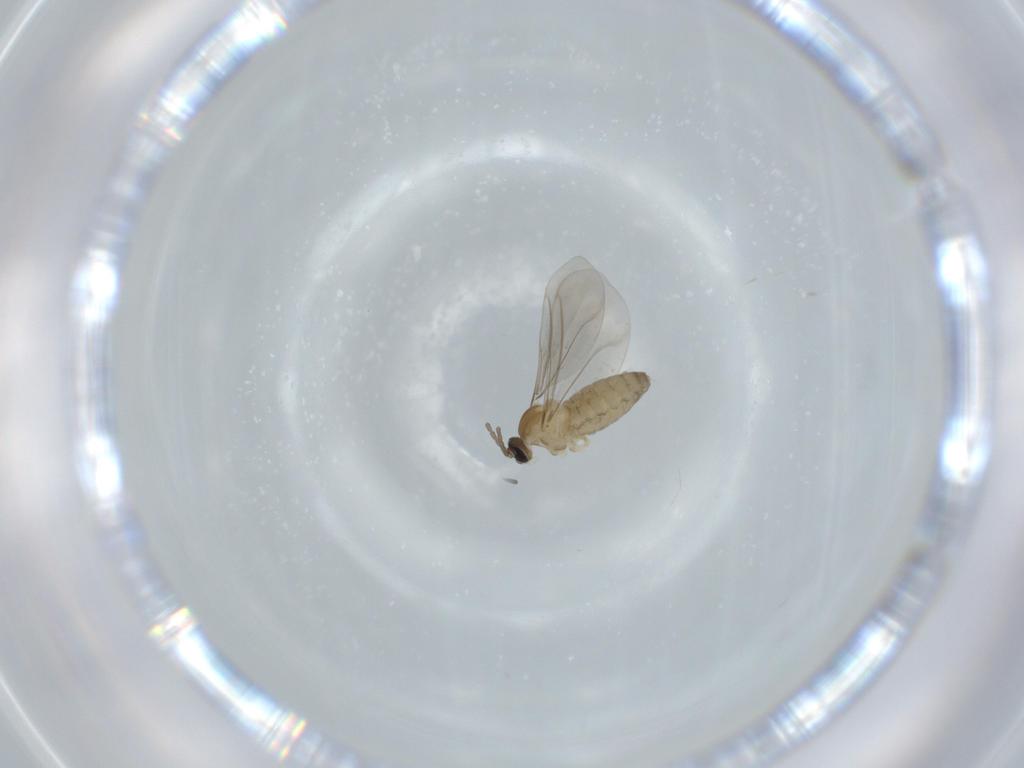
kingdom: Animalia
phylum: Arthropoda
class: Insecta
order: Diptera
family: Cecidomyiidae
